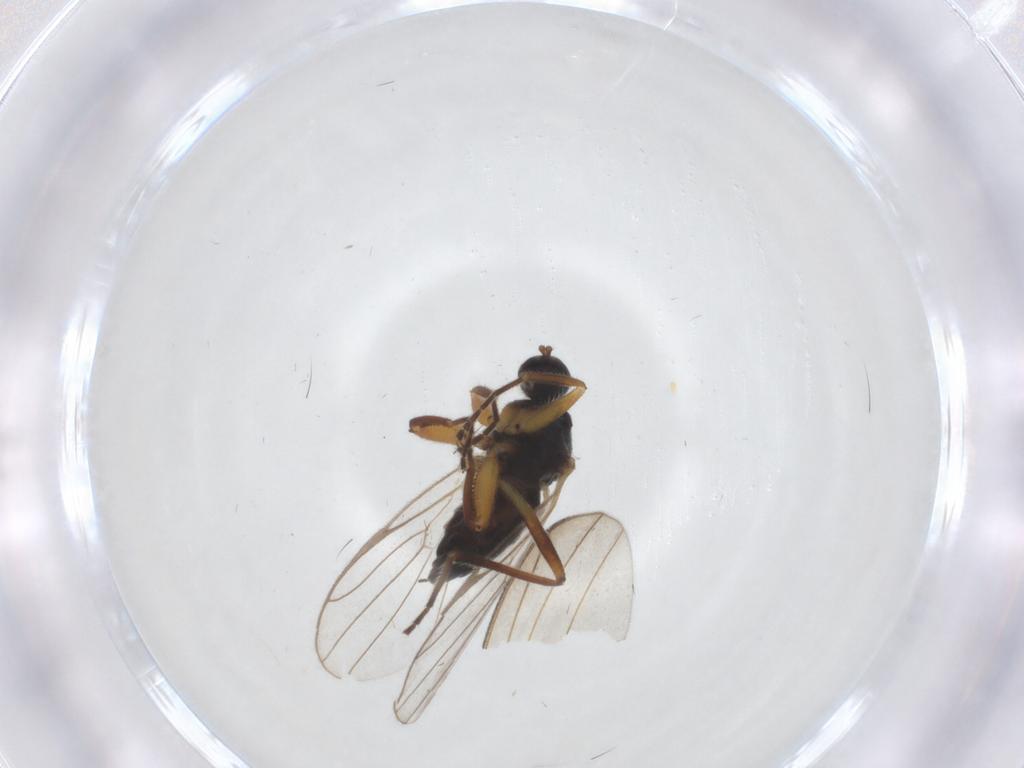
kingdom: Animalia
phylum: Arthropoda
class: Insecta
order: Diptera
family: Hybotidae
